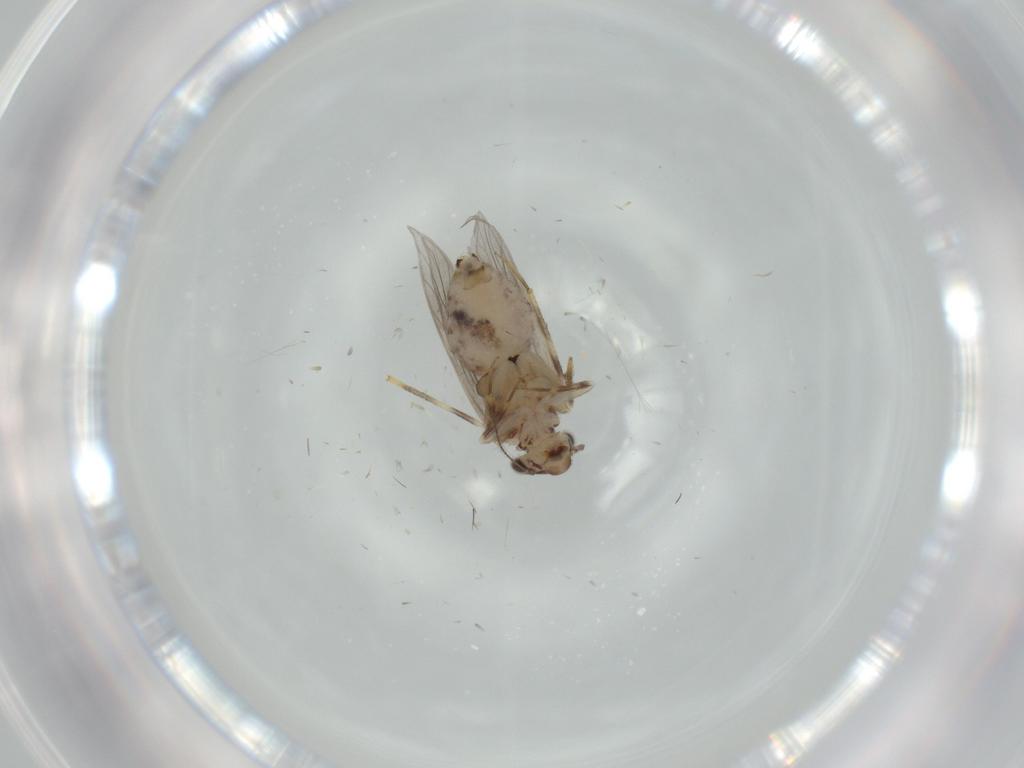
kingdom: Animalia
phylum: Arthropoda
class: Insecta
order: Psocodea
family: Lepidopsocidae
